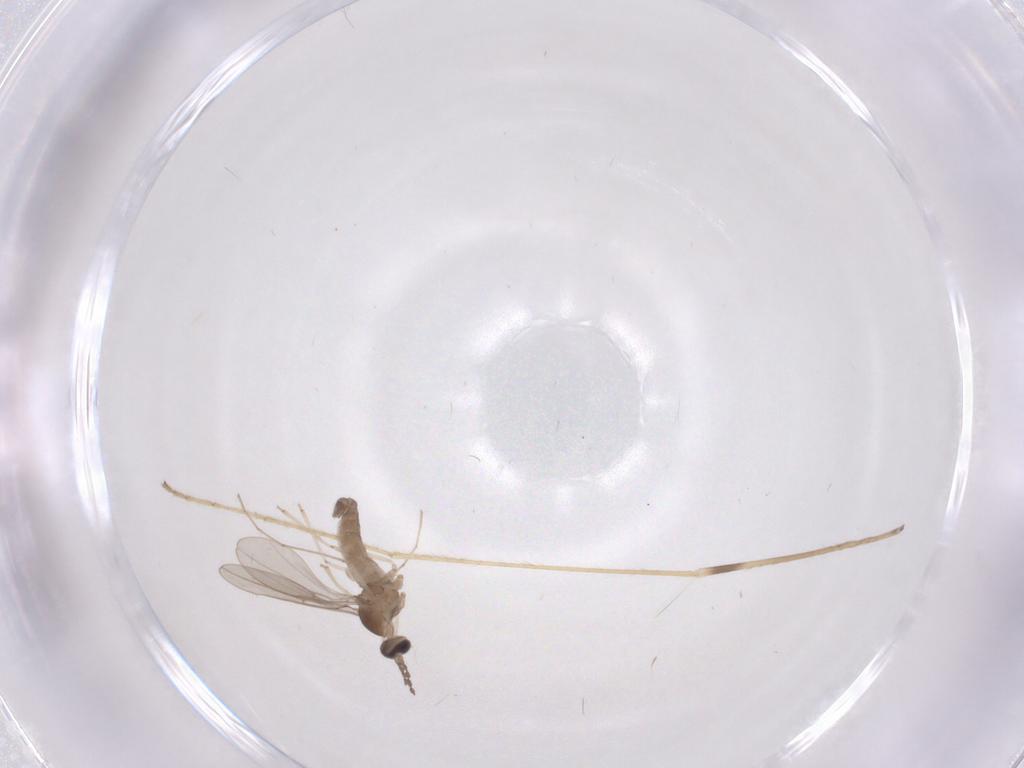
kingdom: Animalia
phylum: Arthropoda
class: Insecta
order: Diptera
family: Cecidomyiidae
